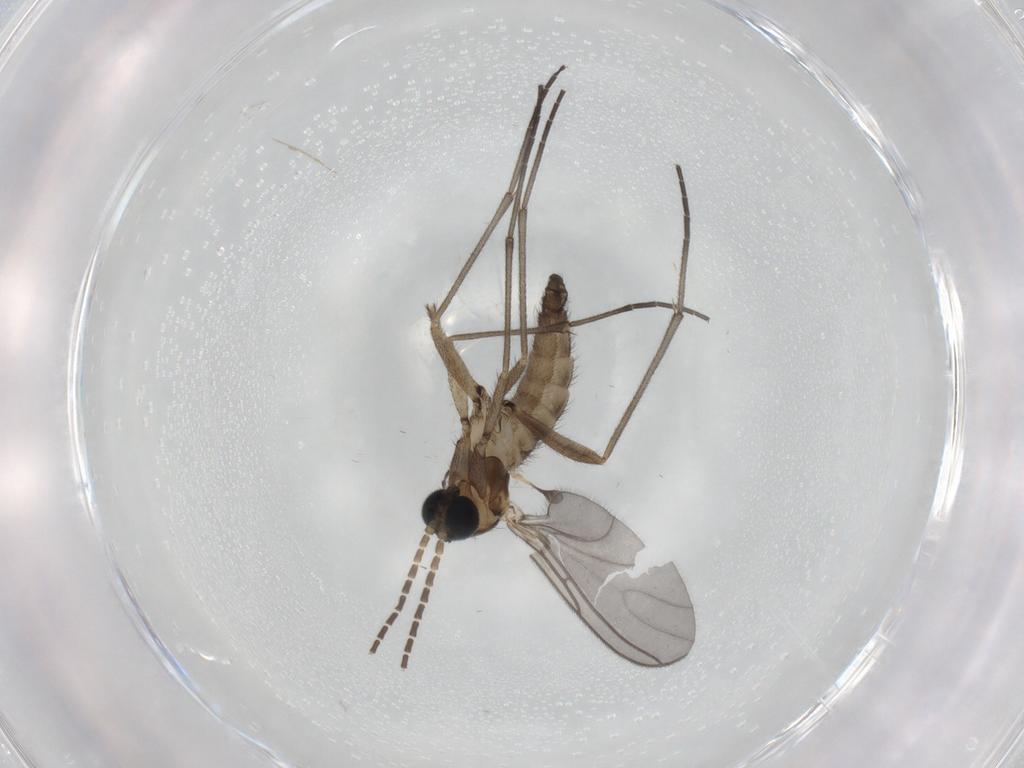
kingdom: Animalia
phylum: Arthropoda
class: Insecta
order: Diptera
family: Sciaridae
